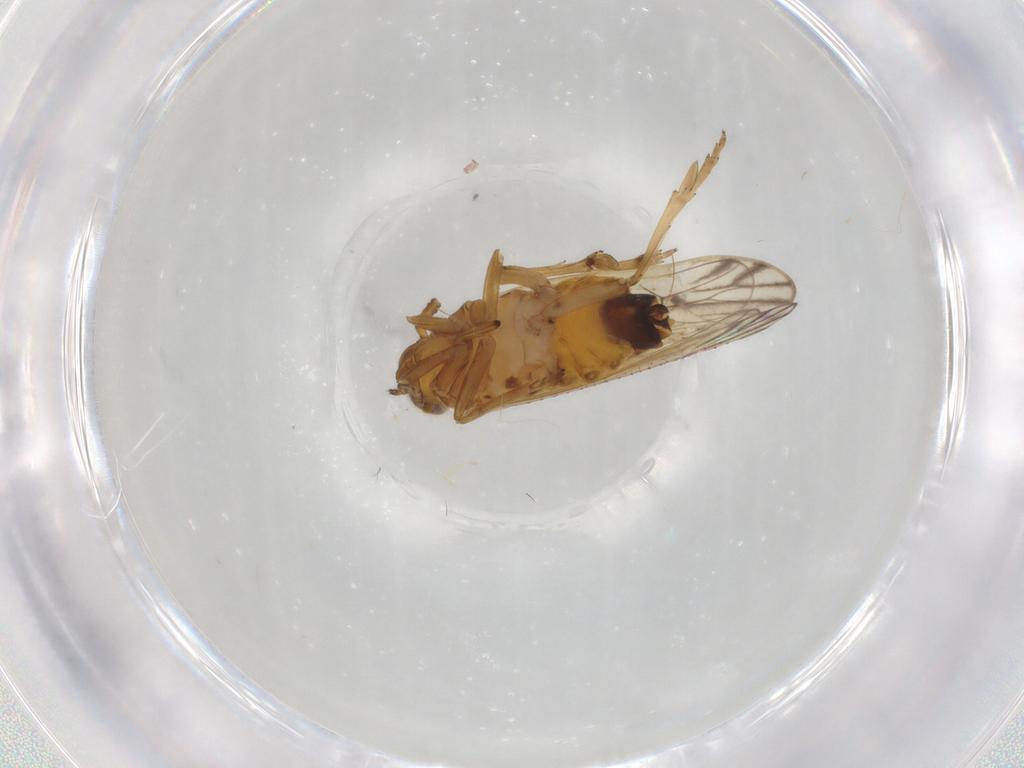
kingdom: Animalia
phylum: Arthropoda
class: Insecta
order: Hemiptera
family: Delphacidae
